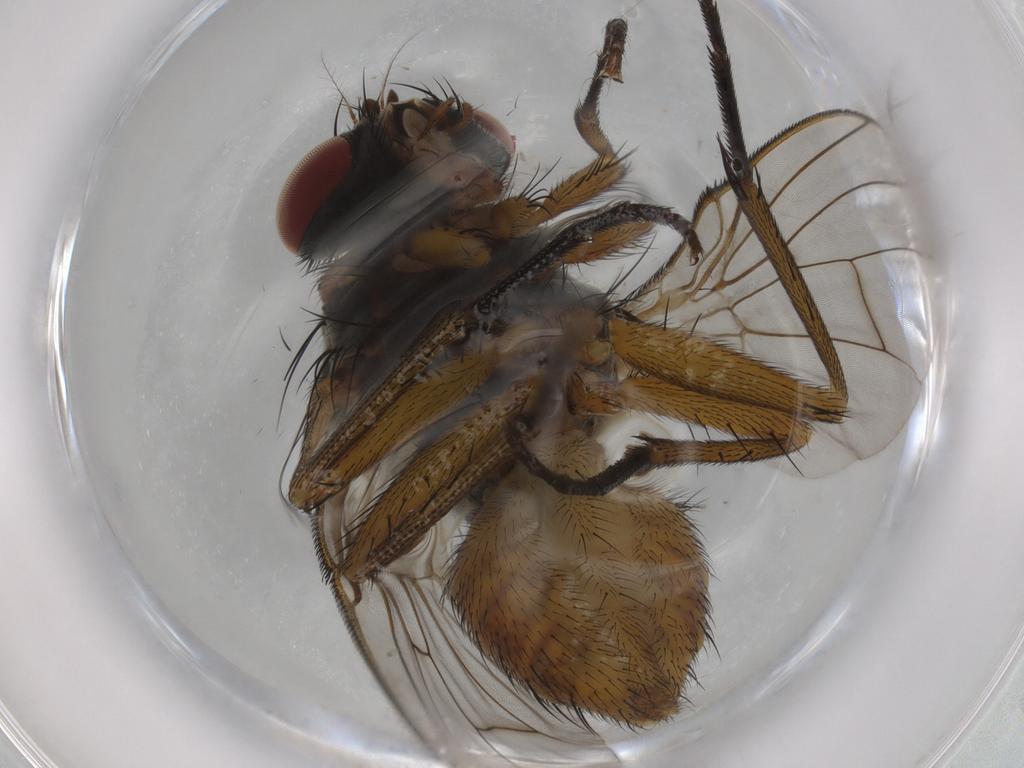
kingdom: Animalia
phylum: Arthropoda
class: Insecta
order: Diptera
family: Muscidae
